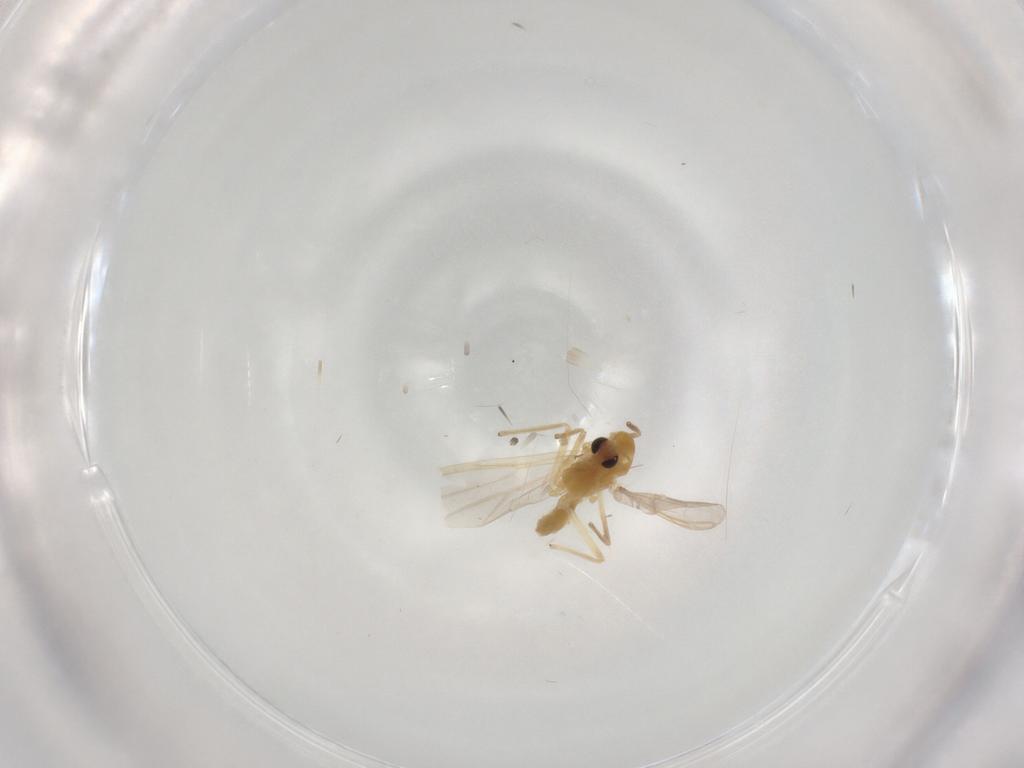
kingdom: Animalia
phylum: Arthropoda
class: Insecta
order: Diptera
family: Chironomidae
